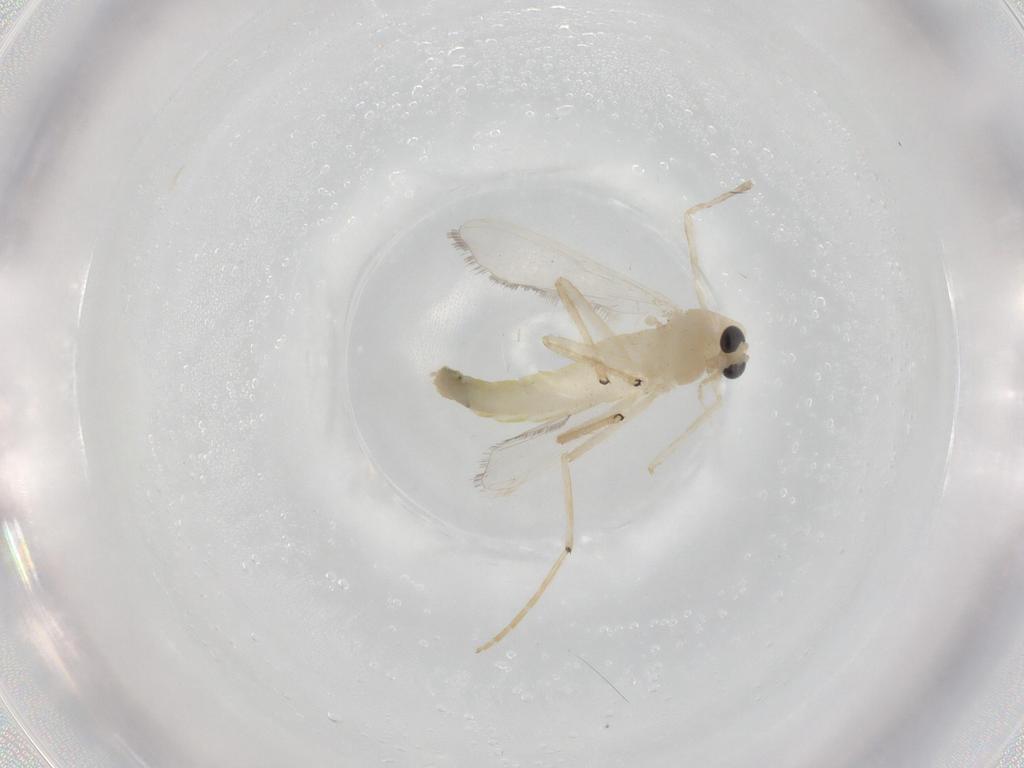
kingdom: Animalia
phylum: Arthropoda
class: Insecta
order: Diptera
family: Chironomidae
